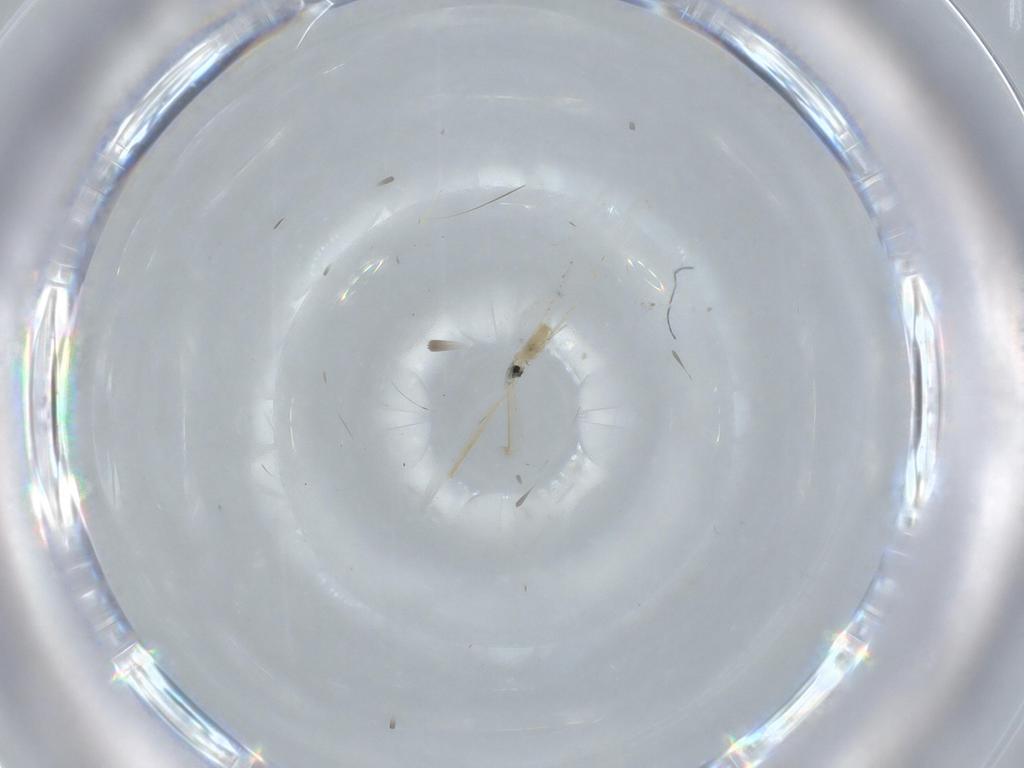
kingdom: Animalia
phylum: Arthropoda
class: Insecta
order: Diptera
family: Cecidomyiidae
